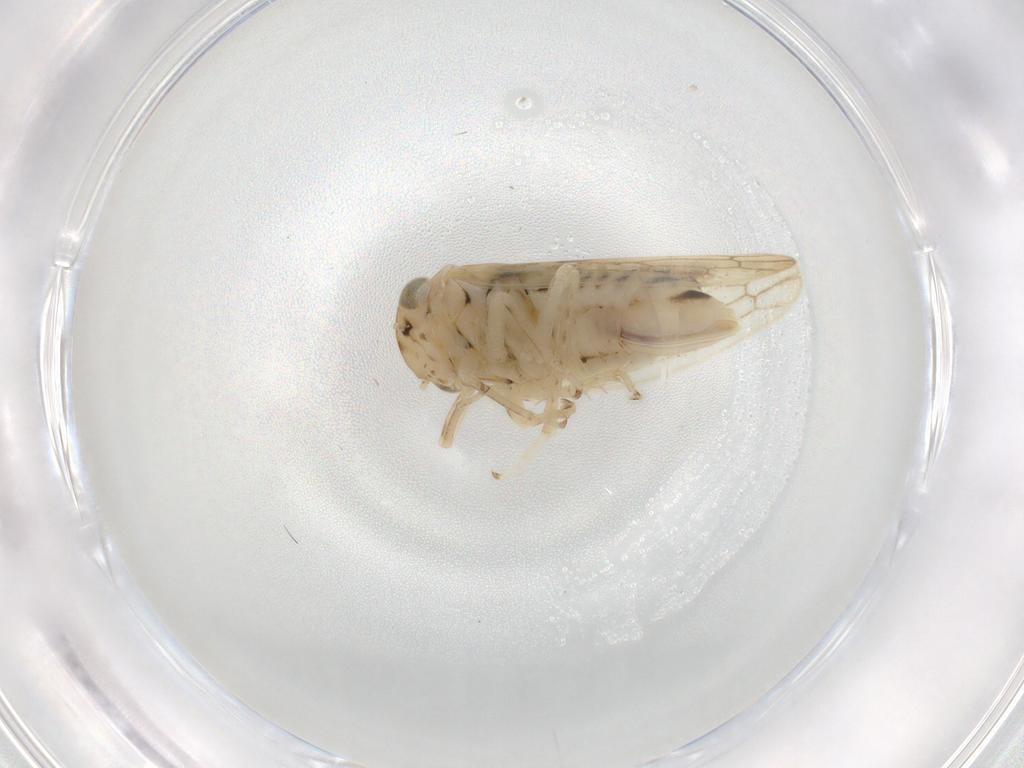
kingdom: Animalia
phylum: Arthropoda
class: Insecta
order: Hemiptera
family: Cicadellidae
